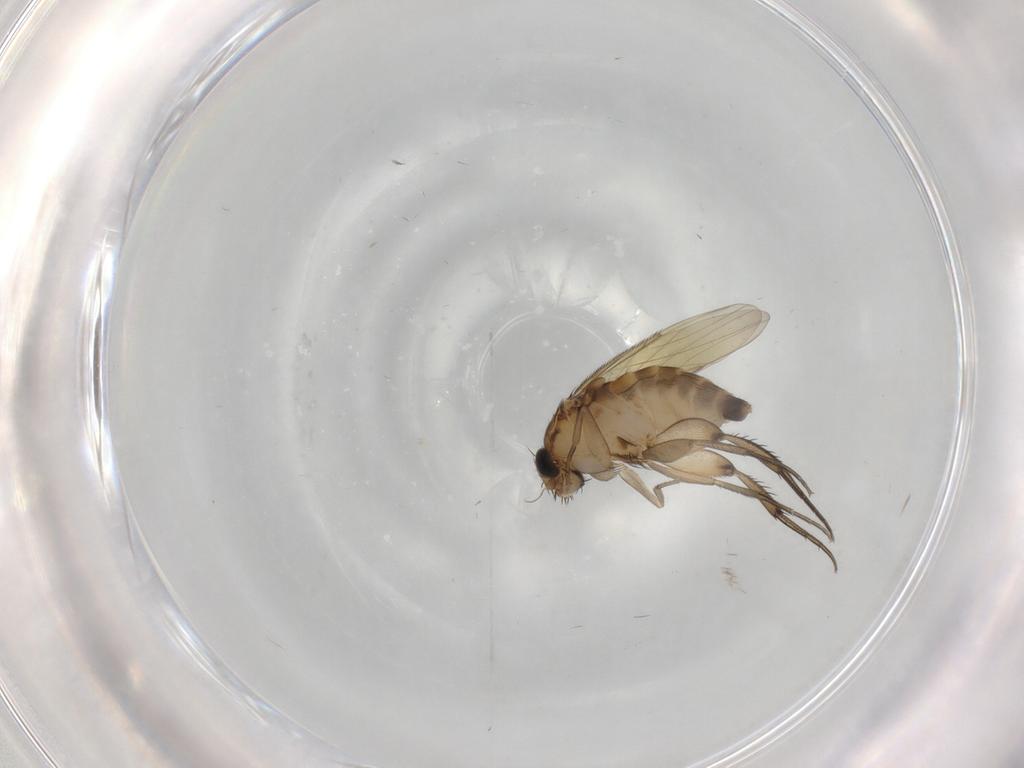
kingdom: Animalia
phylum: Arthropoda
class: Insecta
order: Diptera
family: Phoridae
